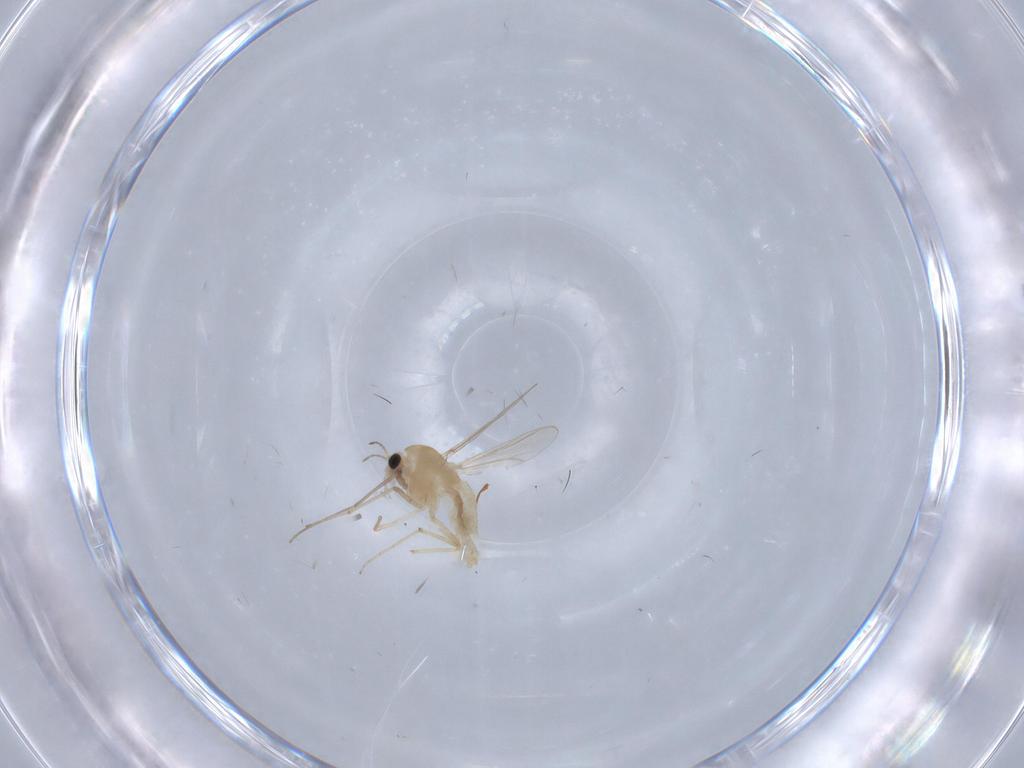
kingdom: Animalia
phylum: Arthropoda
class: Insecta
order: Diptera
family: Chironomidae
